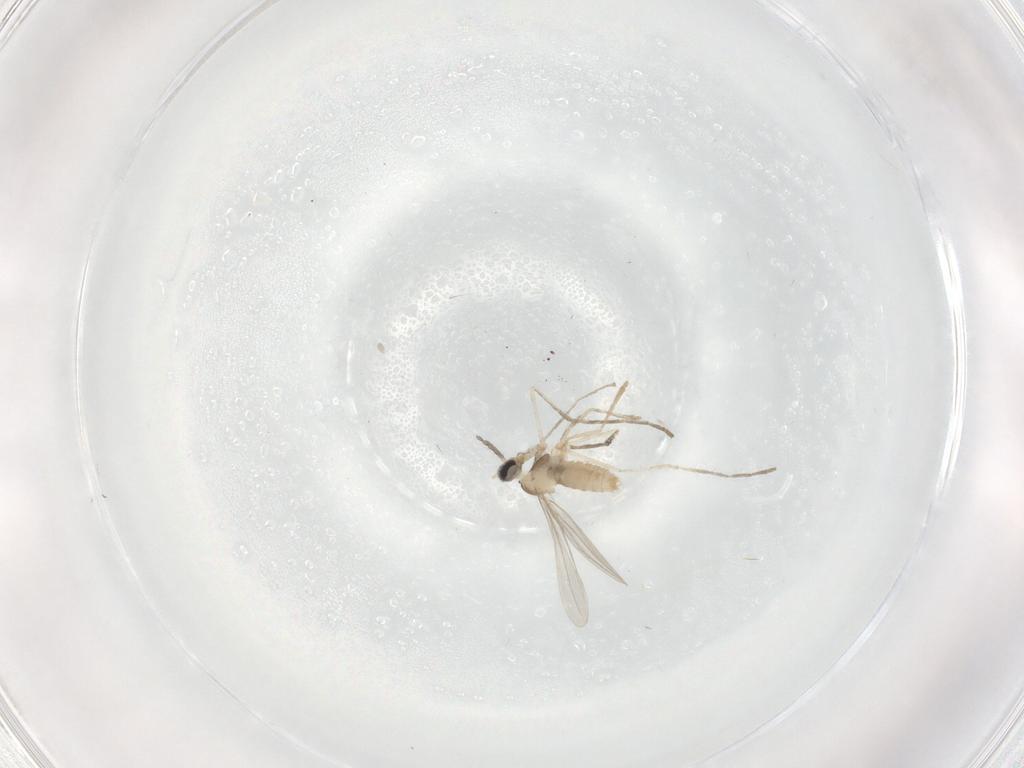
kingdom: Animalia
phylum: Arthropoda
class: Insecta
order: Diptera
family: Cecidomyiidae
